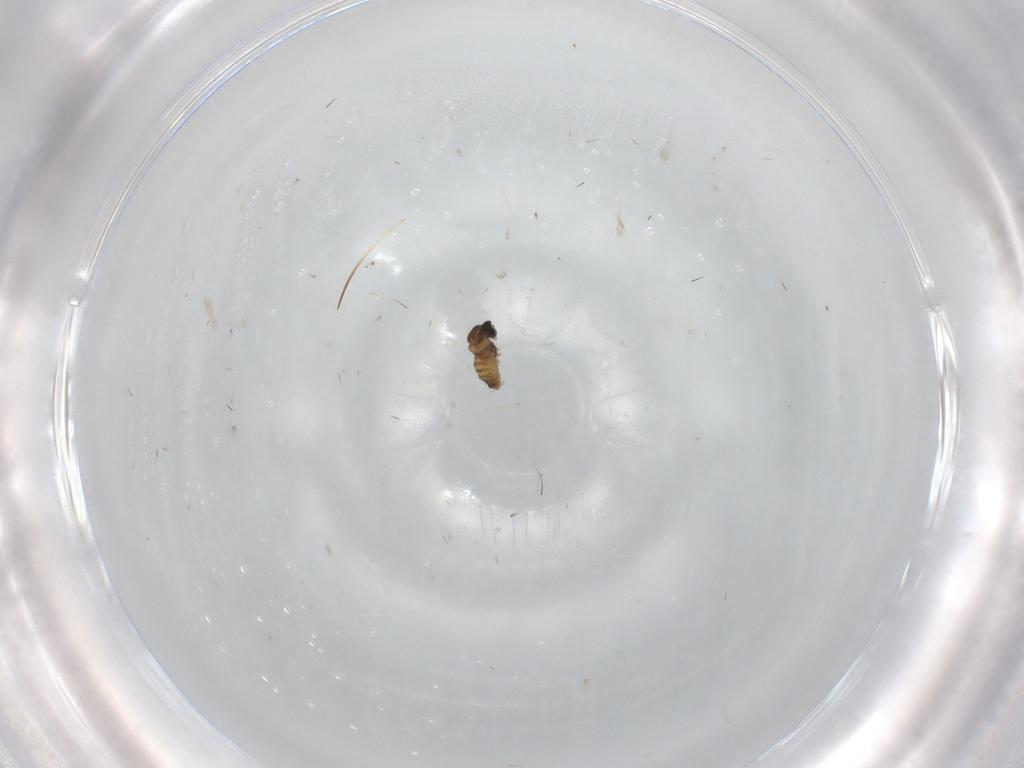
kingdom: Animalia
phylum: Arthropoda
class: Insecta
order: Diptera
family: Cecidomyiidae
